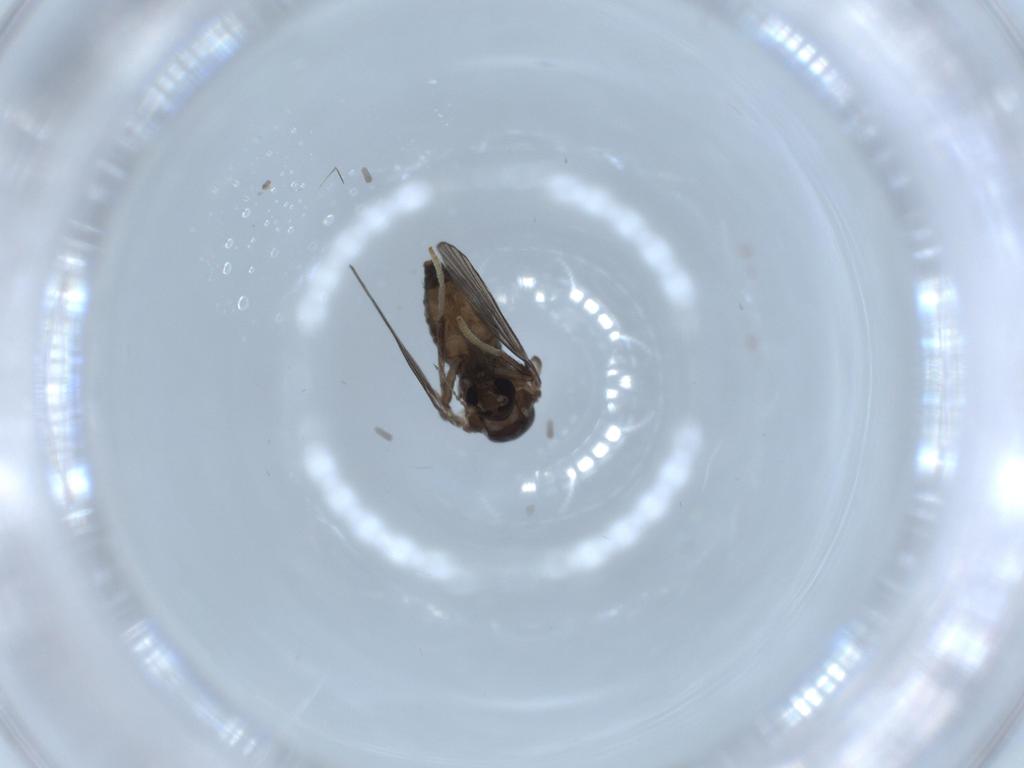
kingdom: Animalia
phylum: Arthropoda
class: Insecta
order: Diptera
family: Psychodidae
